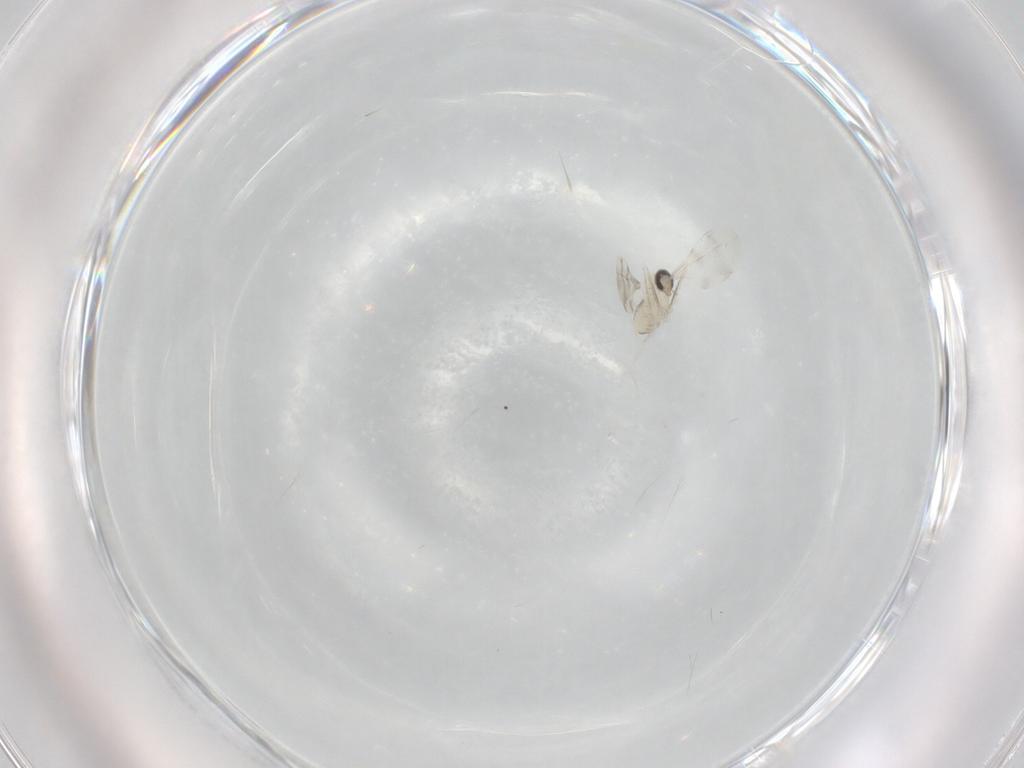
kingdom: Animalia
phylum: Arthropoda
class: Insecta
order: Diptera
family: Cecidomyiidae
